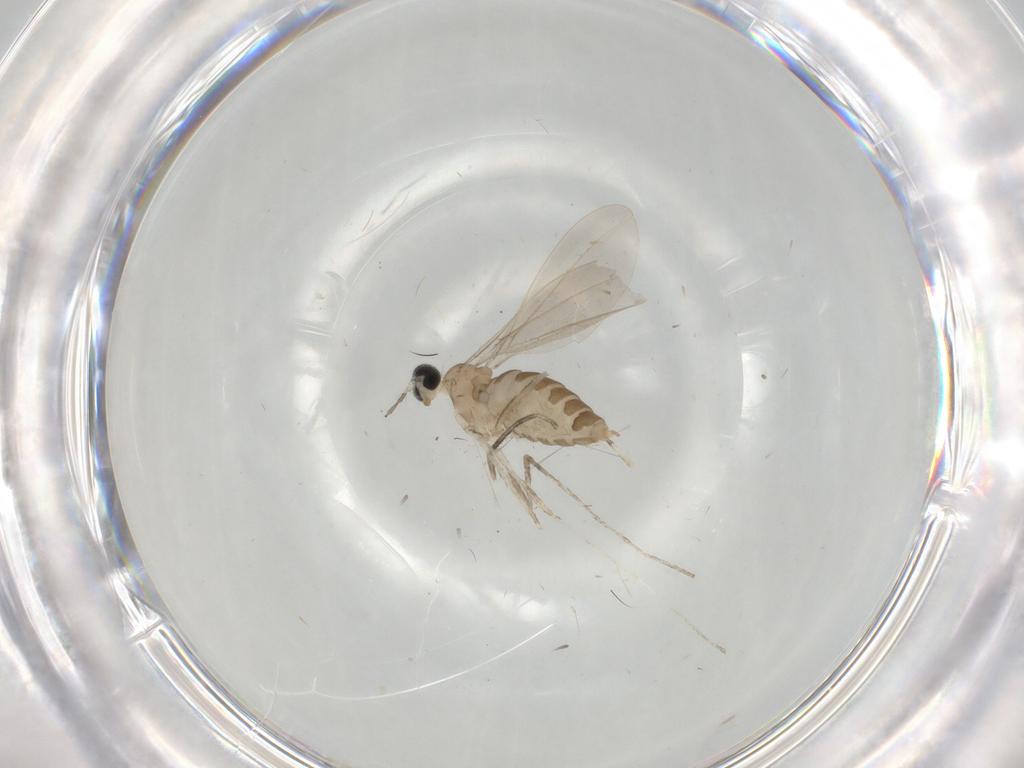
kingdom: Animalia
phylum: Arthropoda
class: Insecta
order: Diptera
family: Cecidomyiidae
